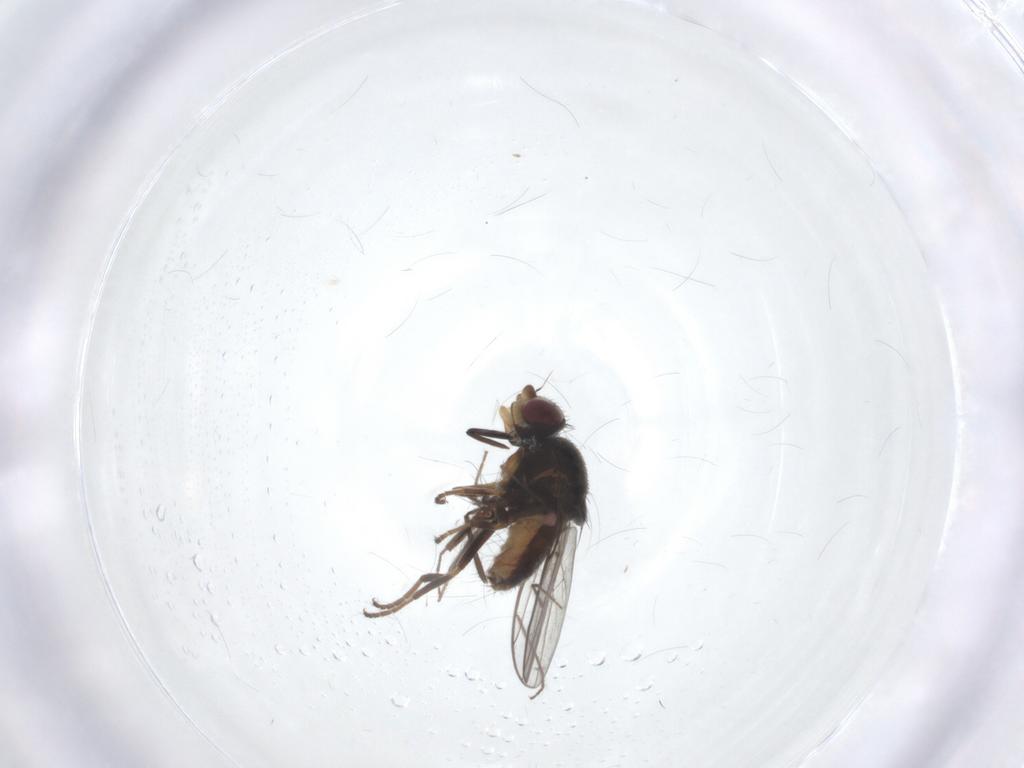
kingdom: Animalia
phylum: Arthropoda
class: Insecta
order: Diptera
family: Chloropidae
